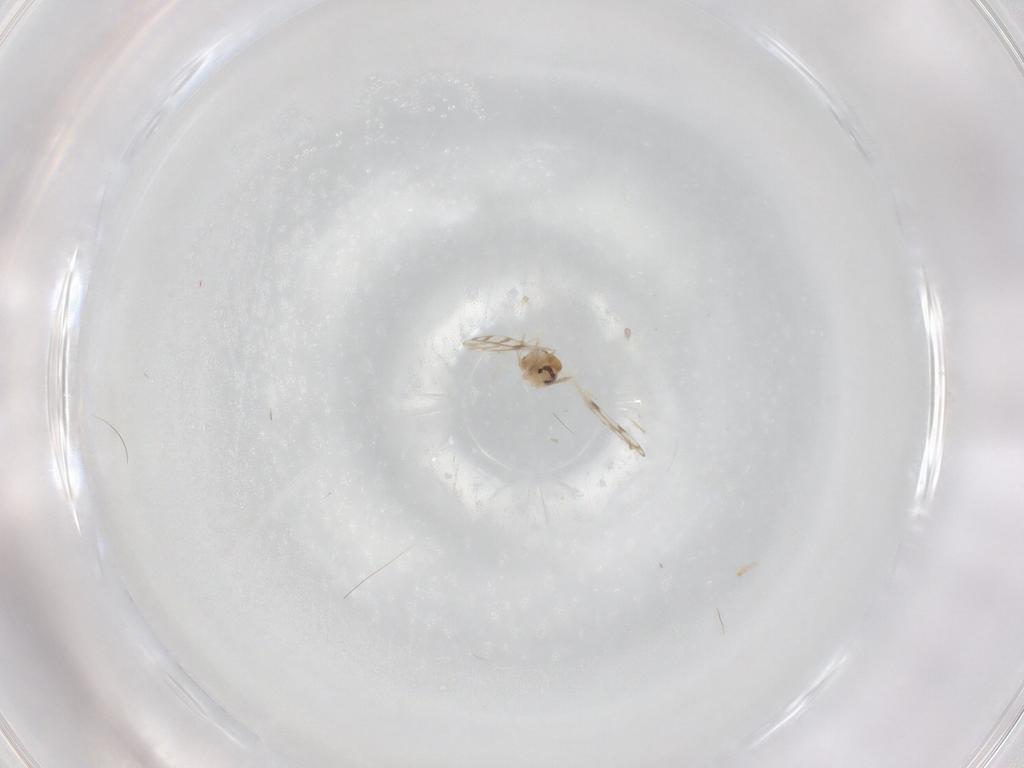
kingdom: Animalia
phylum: Arthropoda
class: Insecta
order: Diptera
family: Cecidomyiidae
